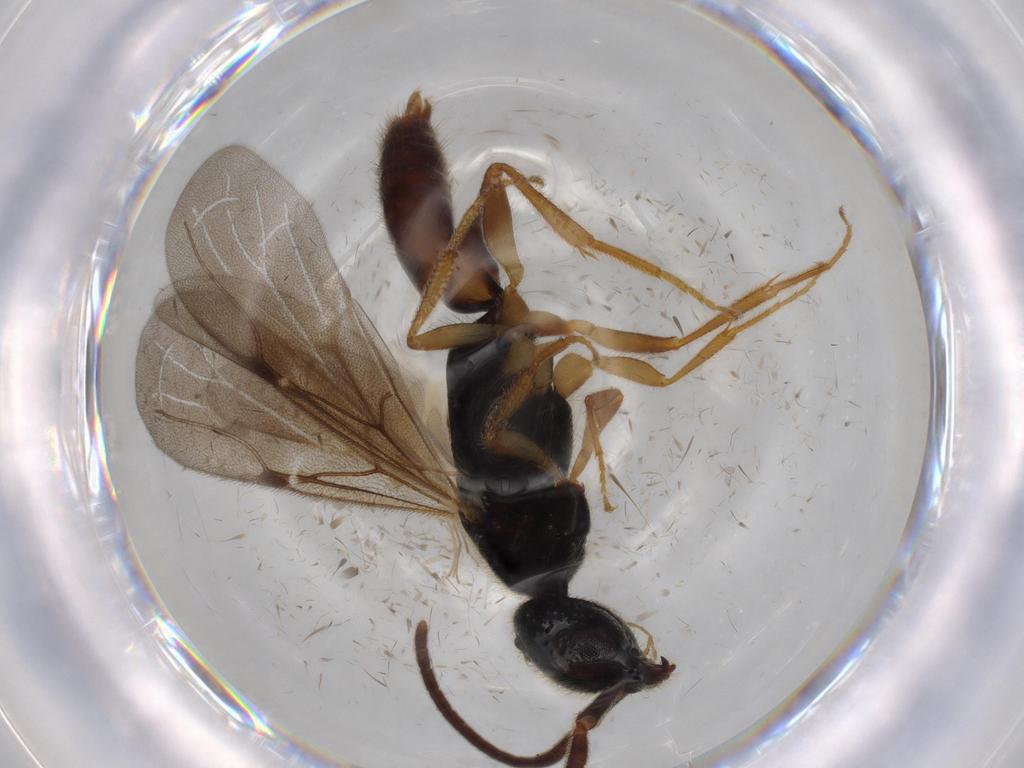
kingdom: Animalia
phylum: Arthropoda
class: Insecta
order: Hymenoptera
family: Bethylidae
